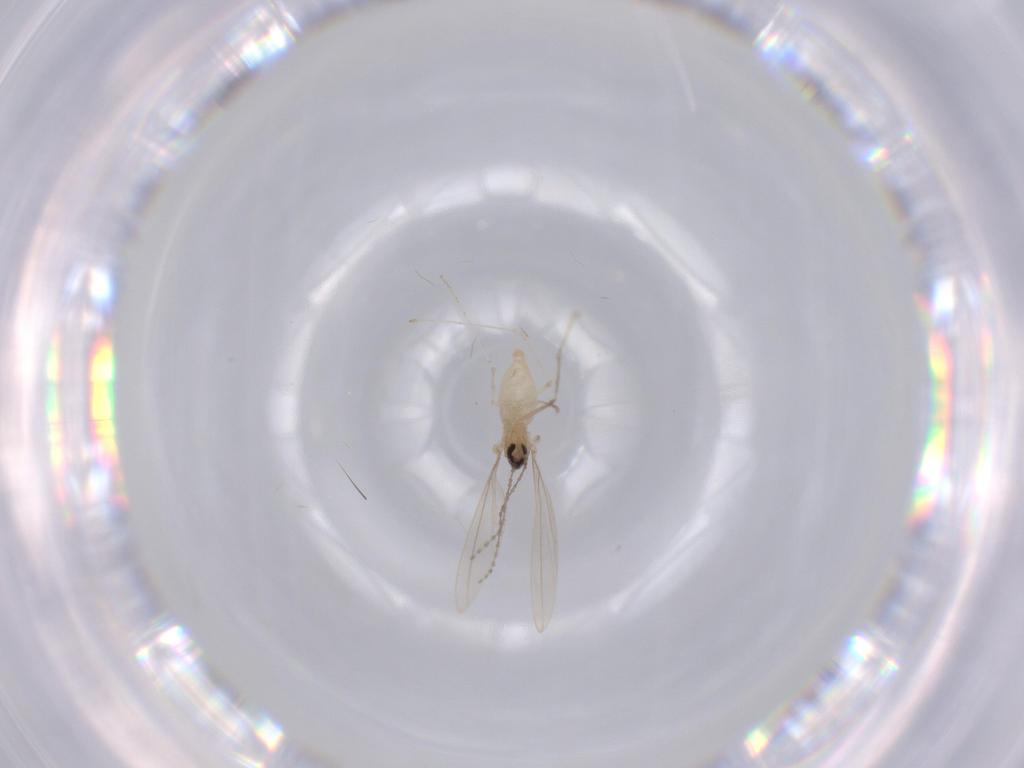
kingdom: Animalia
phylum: Arthropoda
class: Insecta
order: Diptera
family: Cecidomyiidae
